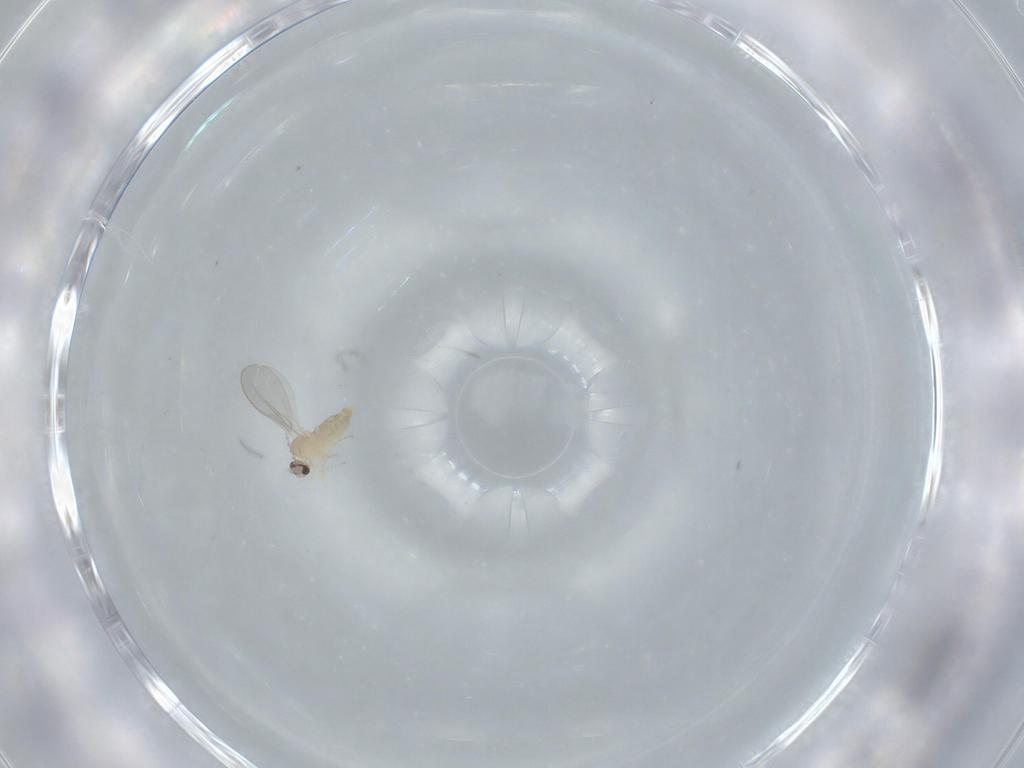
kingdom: Animalia
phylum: Arthropoda
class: Insecta
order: Diptera
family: Cecidomyiidae
